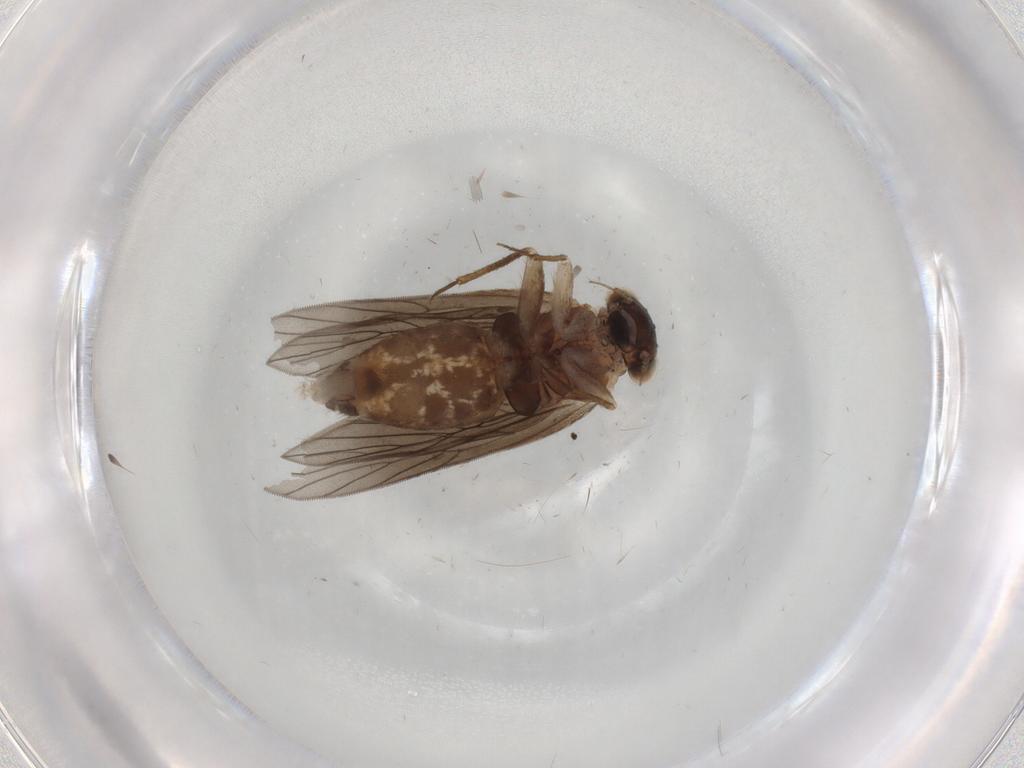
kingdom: Animalia
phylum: Arthropoda
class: Insecta
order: Psocodea
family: Lepidopsocidae
